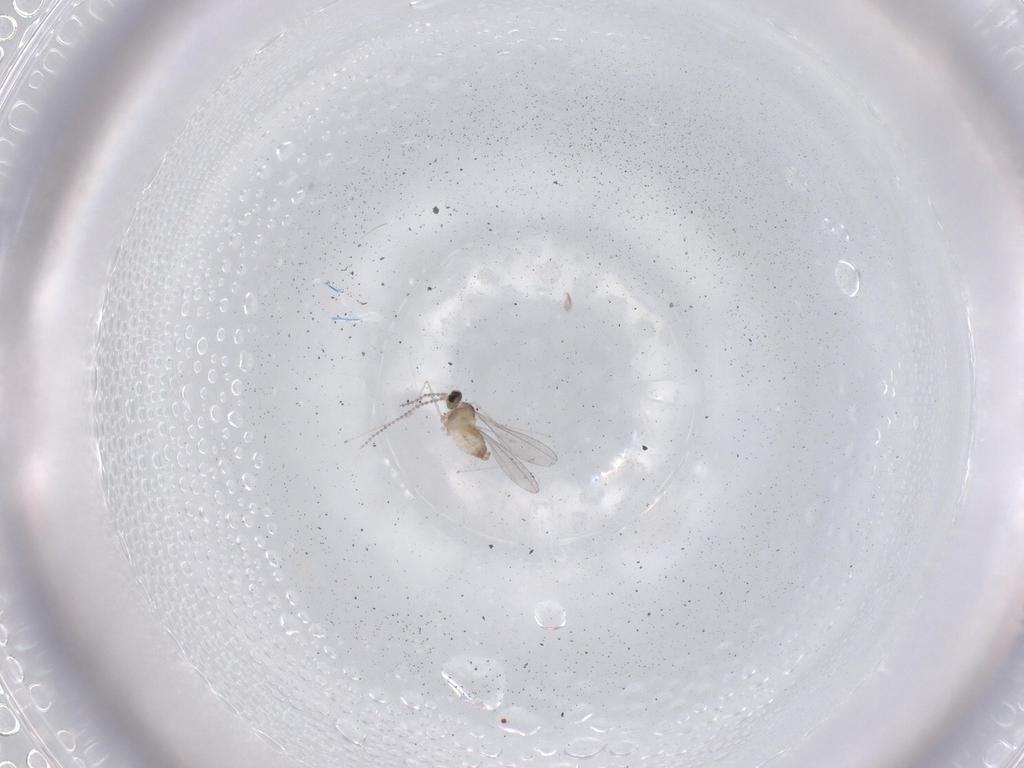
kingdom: Animalia
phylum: Arthropoda
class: Insecta
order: Diptera
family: Cecidomyiidae
